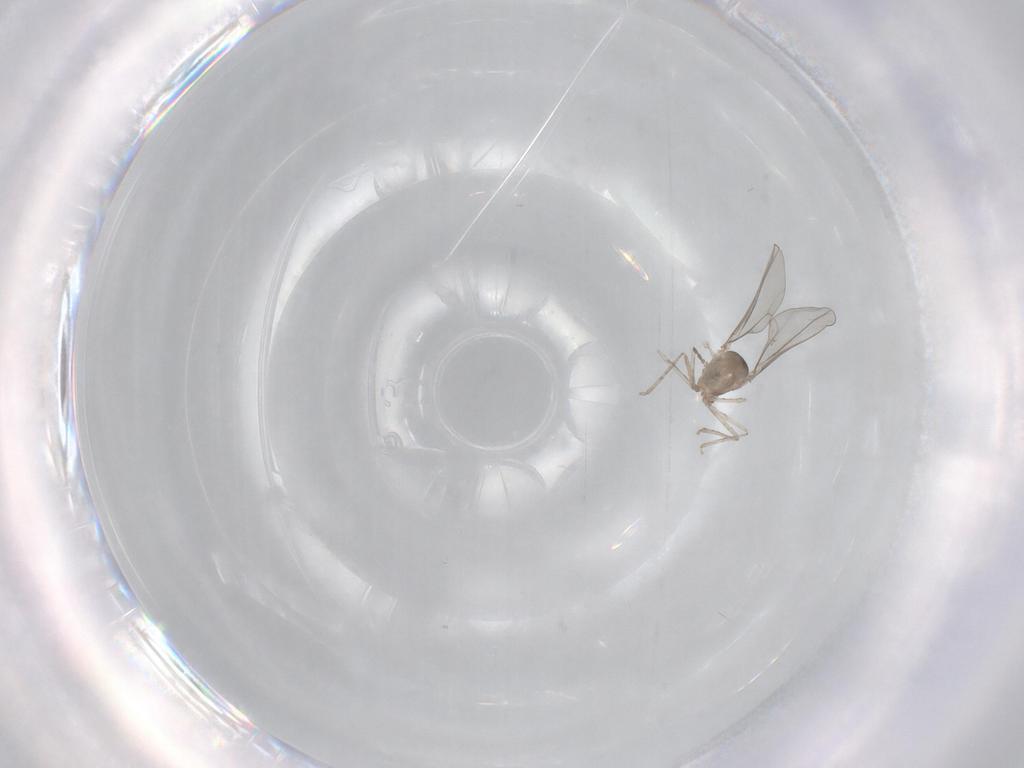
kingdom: Animalia
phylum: Arthropoda
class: Insecta
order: Diptera
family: Cecidomyiidae
